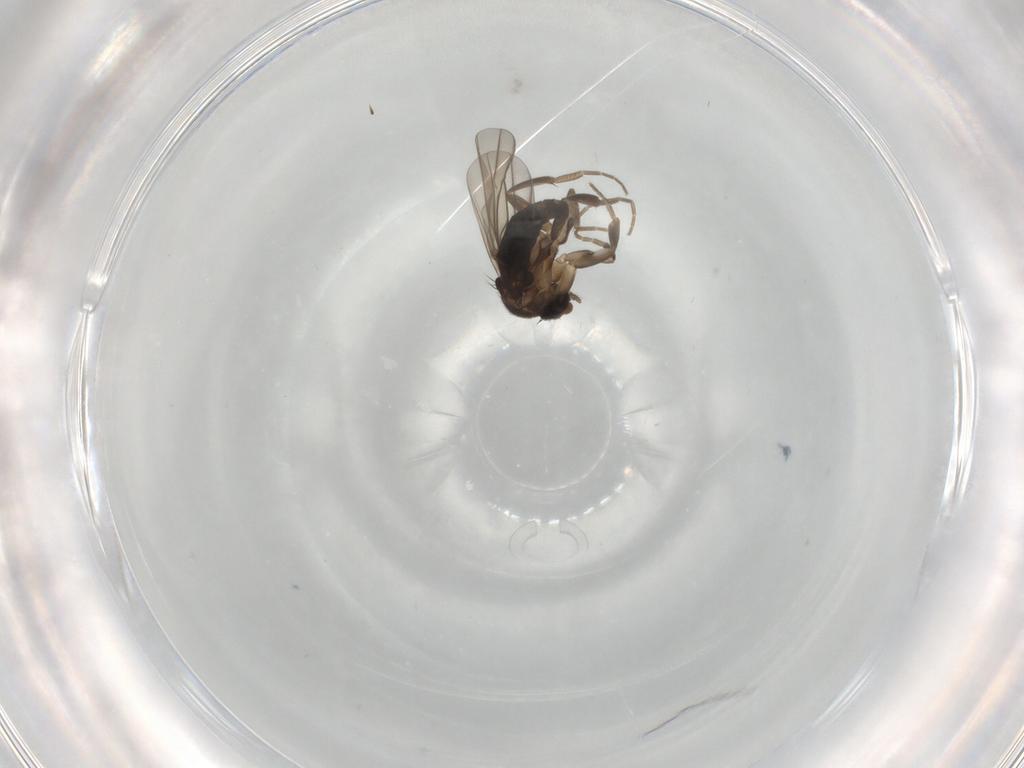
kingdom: Animalia
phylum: Arthropoda
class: Insecta
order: Diptera
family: Phoridae
